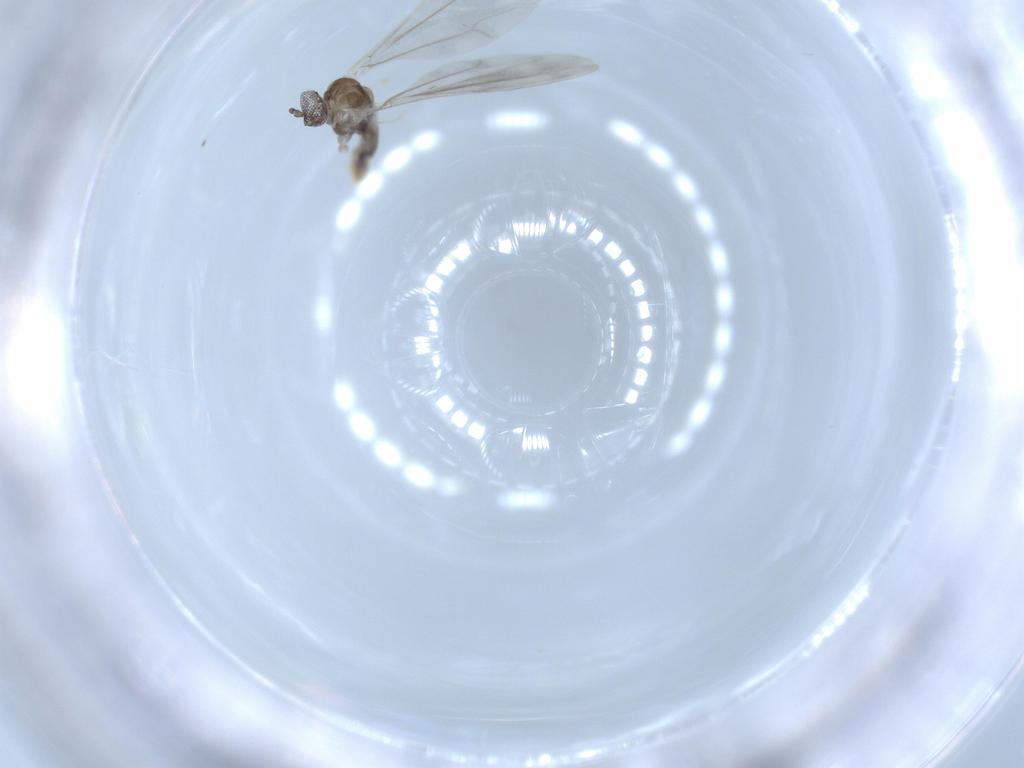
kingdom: Animalia
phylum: Arthropoda
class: Insecta
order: Diptera
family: Cecidomyiidae
